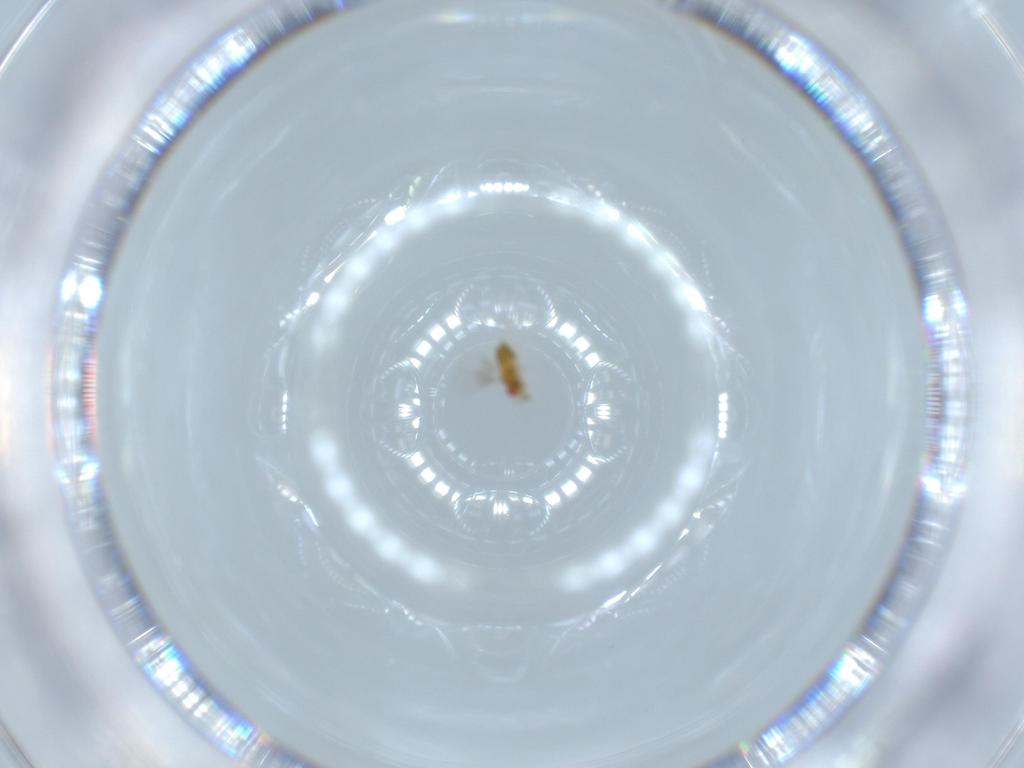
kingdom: Animalia
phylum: Arthropoda
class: Insecta
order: Hymenoptera
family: Trichogrammatidae
